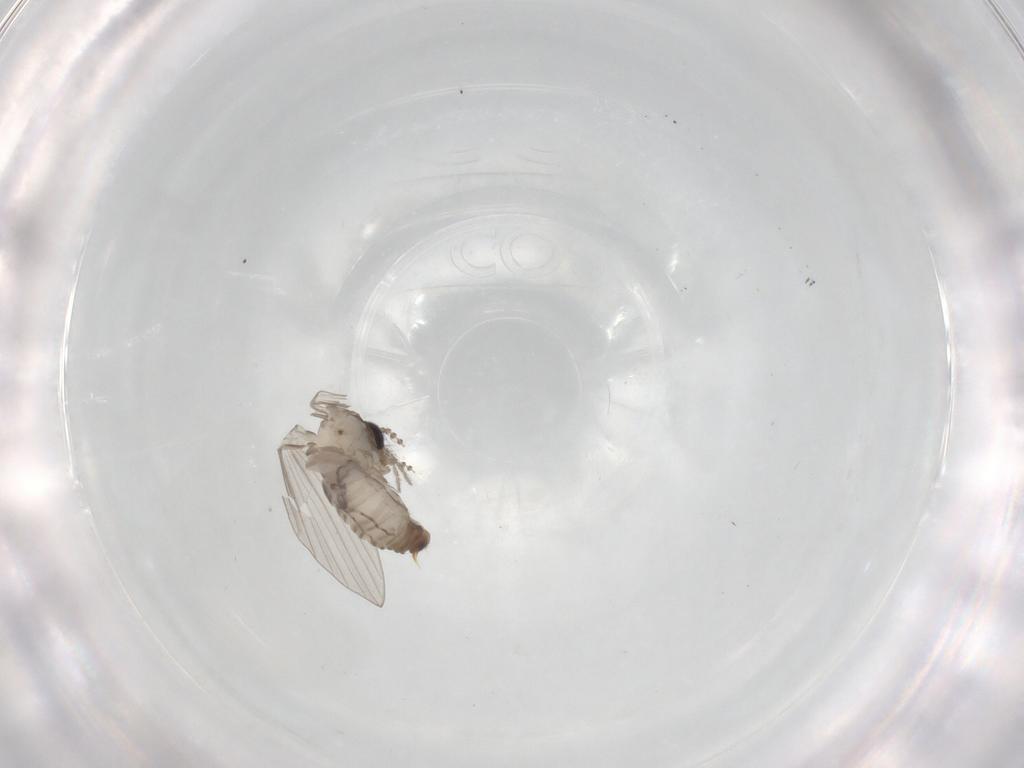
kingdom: Animalia
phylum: Arthropoda
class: Insecta
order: Diptera
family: Psychodidae
